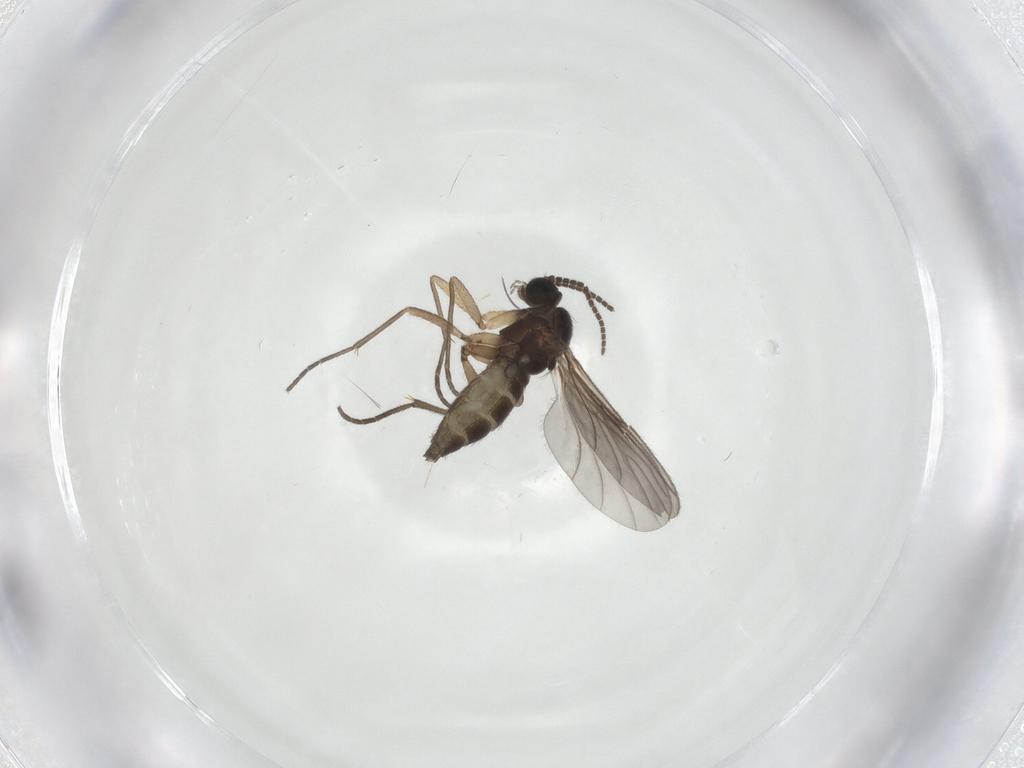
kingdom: Animalia
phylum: Arthropoda
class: Insecta
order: Diptera
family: Sciaridae
